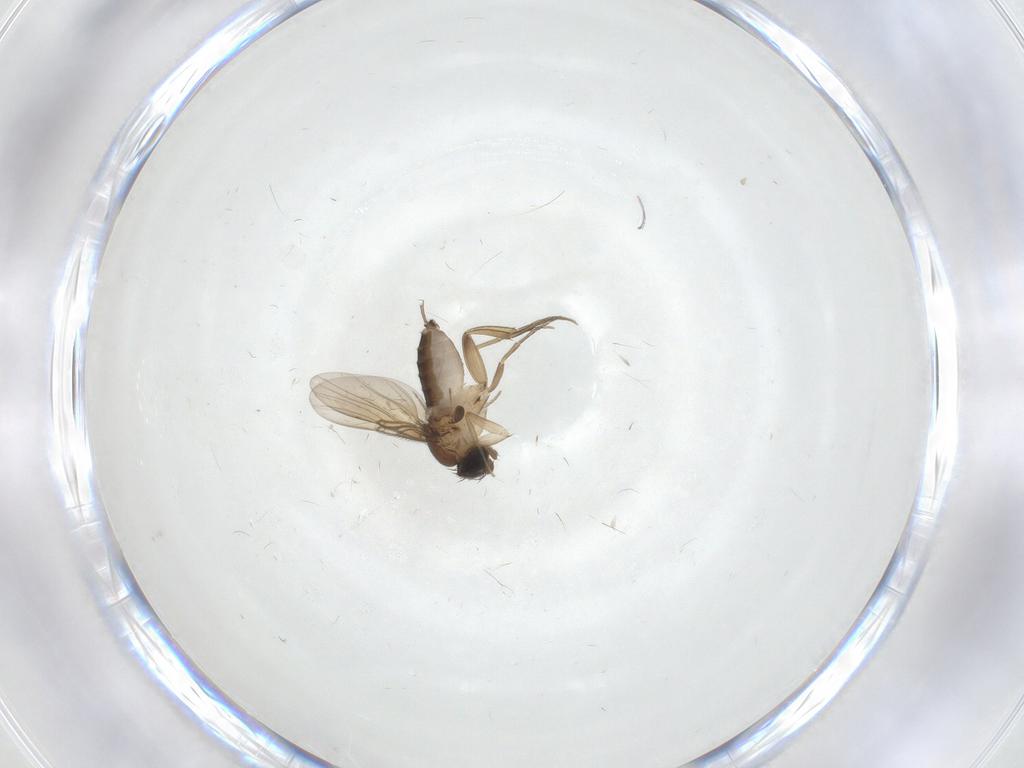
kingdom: Animalia
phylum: Arthropoda
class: Insecta
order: Diptera
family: Phoridae
